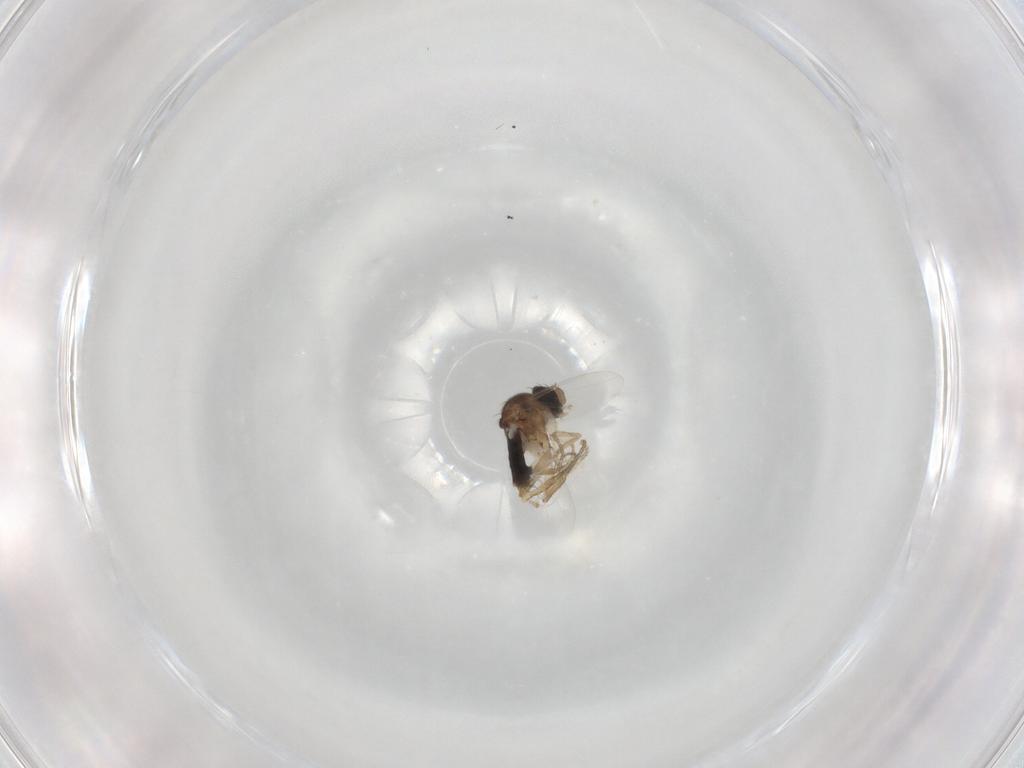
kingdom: Animalia
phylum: Arthropoda
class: Insecta
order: Diptera
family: Phoridae
